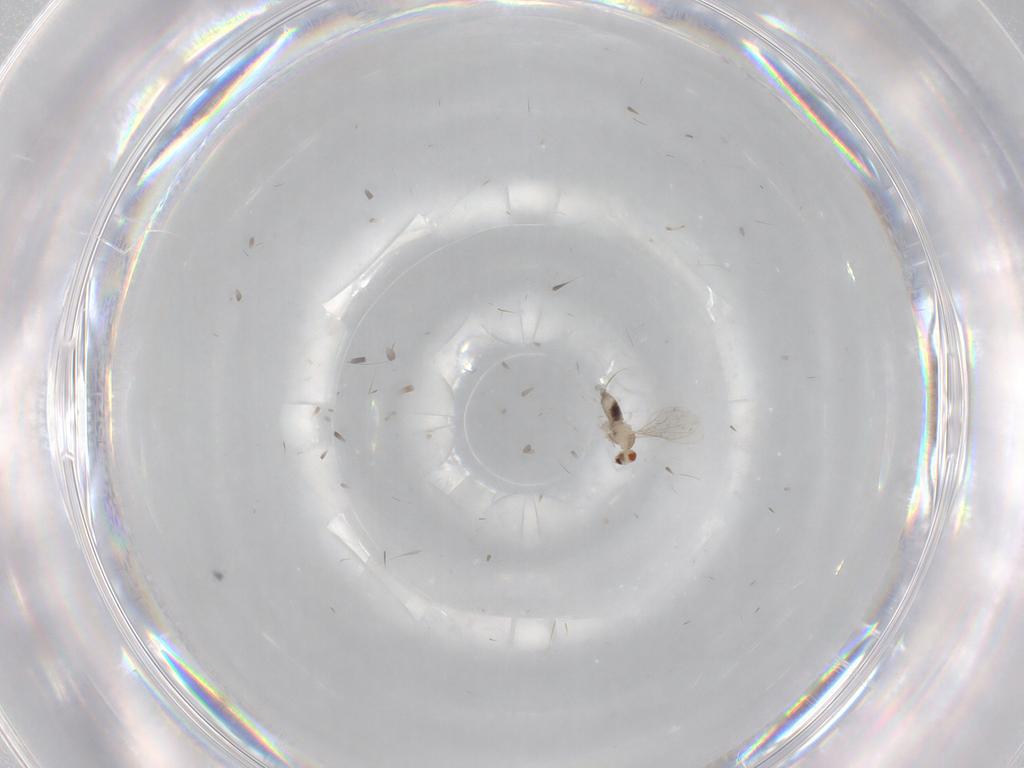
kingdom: Animalia
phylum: Arthropoda
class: Insecta
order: Diptera
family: Cecidomyiidae
